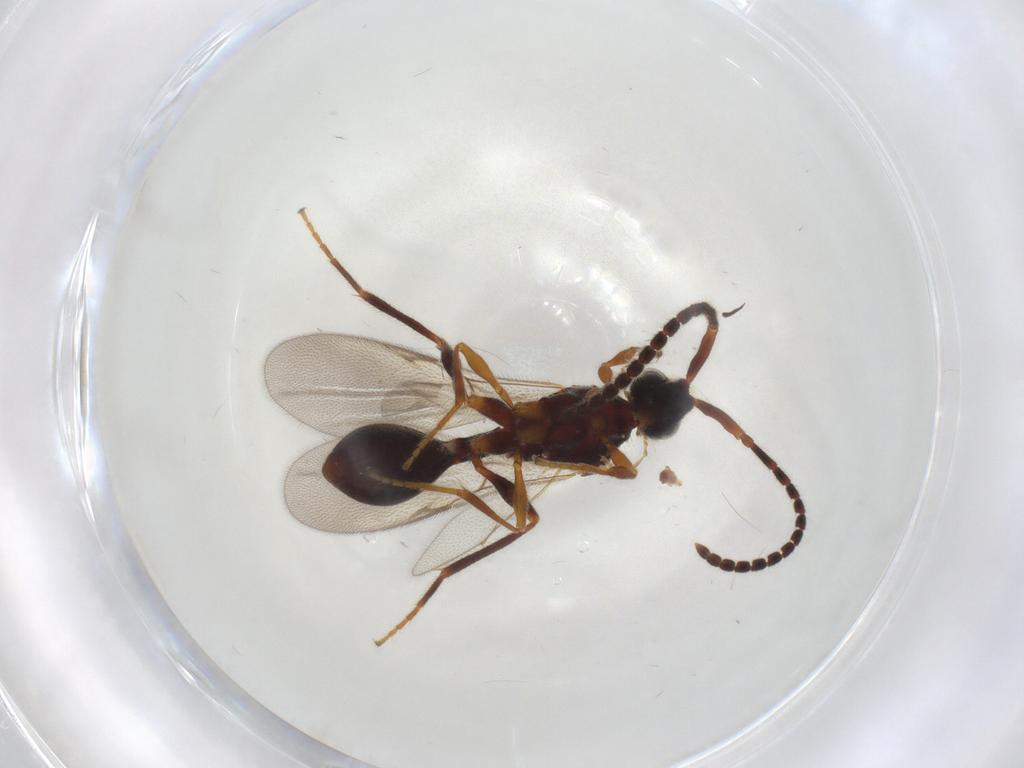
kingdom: Animalia
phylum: Arthropoda
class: Insecta
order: Hymenoptera
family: Diapriidae
